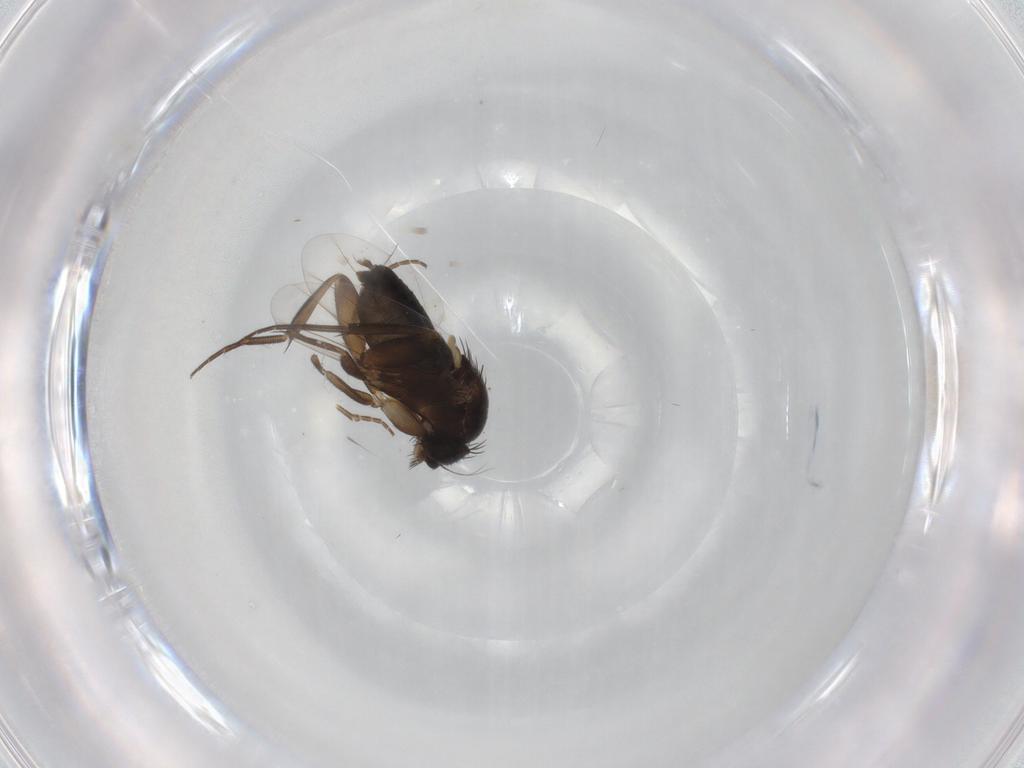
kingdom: Animalia
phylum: Arthropoda
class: Insecta
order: Diptera
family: Phoridae
